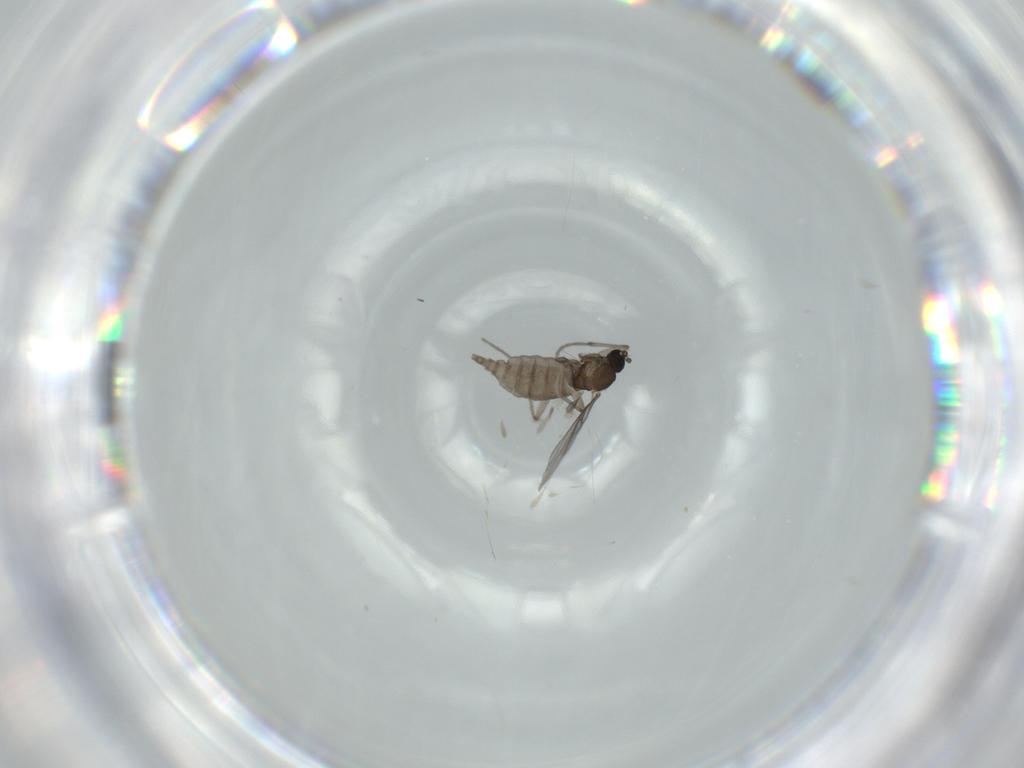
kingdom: Animalia
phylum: Arthropoda
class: Insecta
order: Diptera
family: Sciaridae
